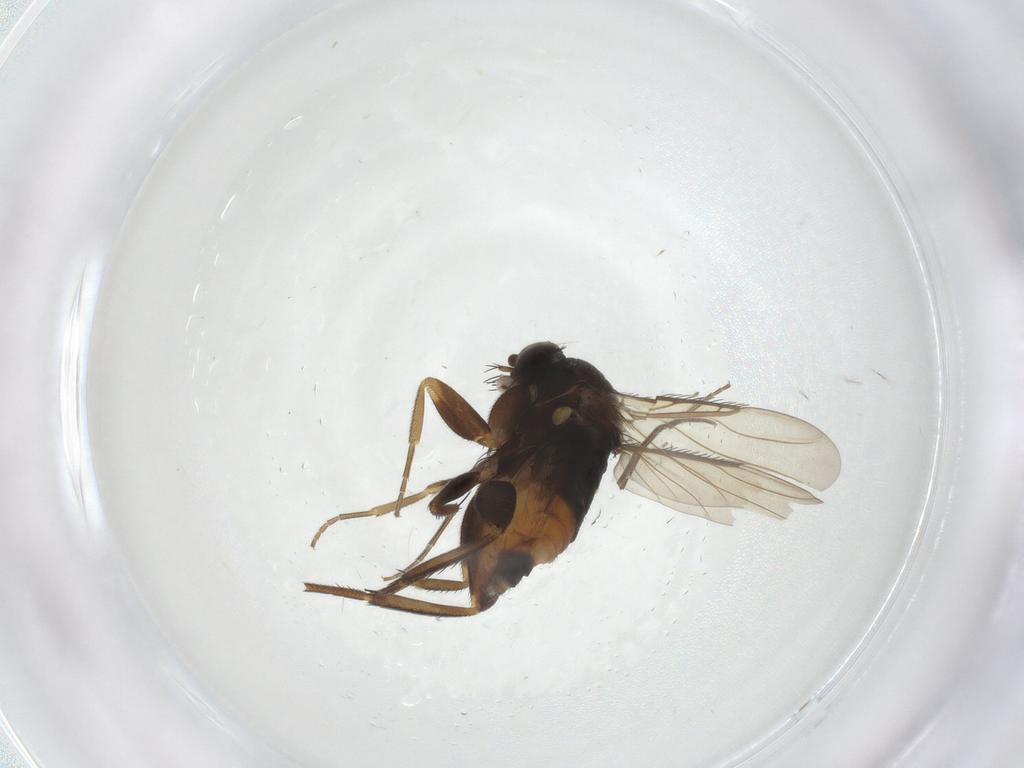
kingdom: Animalia
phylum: Arthropoda
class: Insecta
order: Diptera
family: Phoridae
